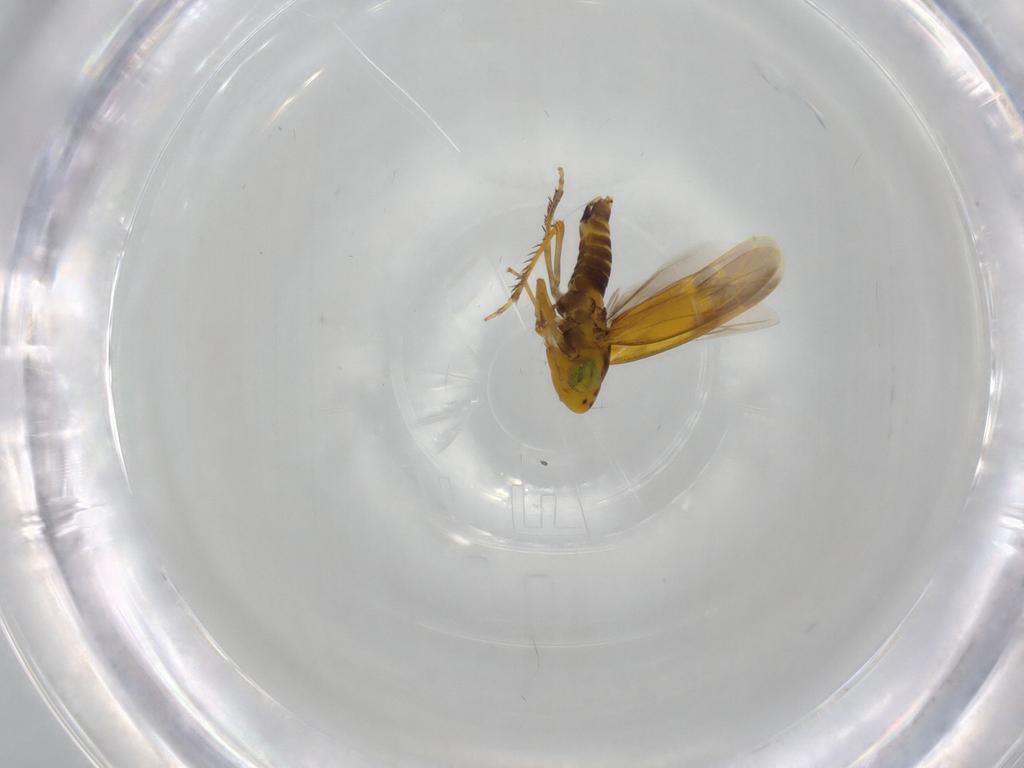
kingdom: Animalia
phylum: Arthropoda
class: Insecta
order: Hemiptera
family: Cicadellidae
